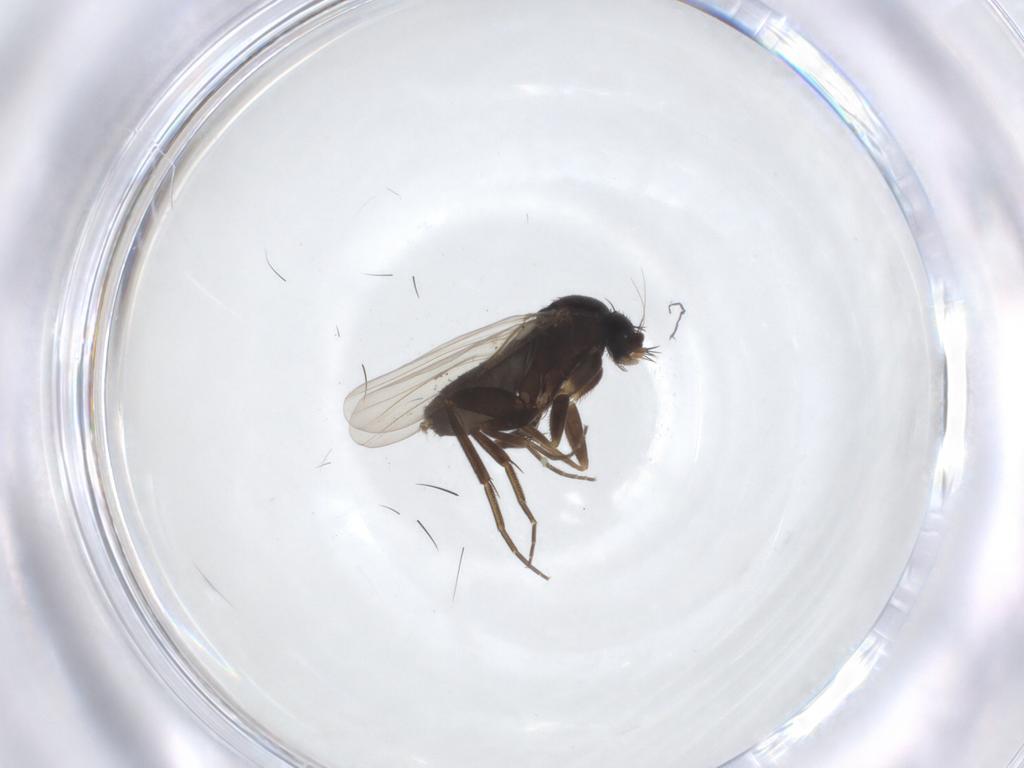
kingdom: Animalia
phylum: Arthropoda
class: Insecta
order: Diptera
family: Phoridae
